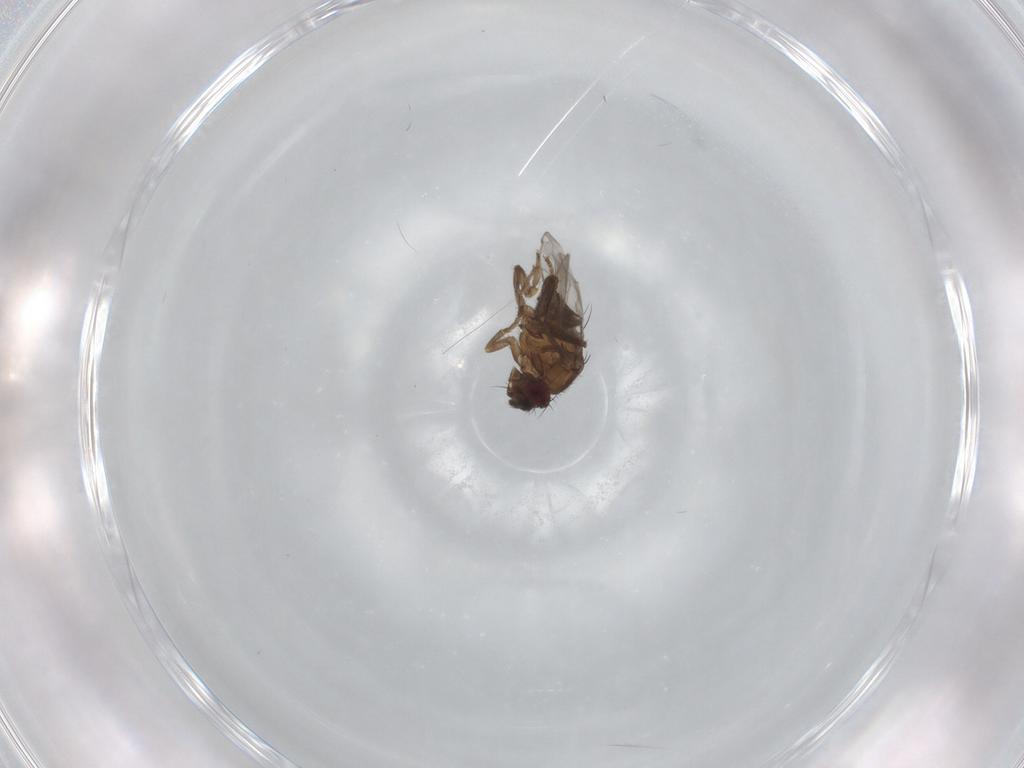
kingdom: Animalia
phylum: Arthropoda
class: Insecta
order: Diptera
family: Sphaeroceridae
